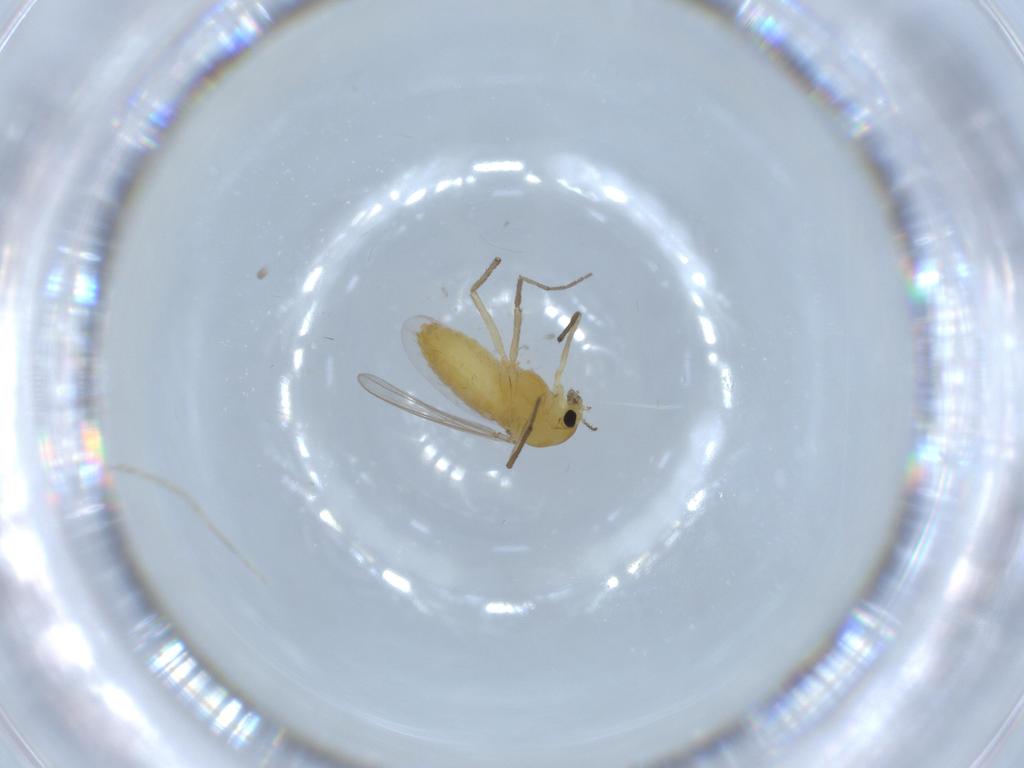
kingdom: Animalia
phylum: Arthropoda
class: Insecta
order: Diptera
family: Chironomidae
